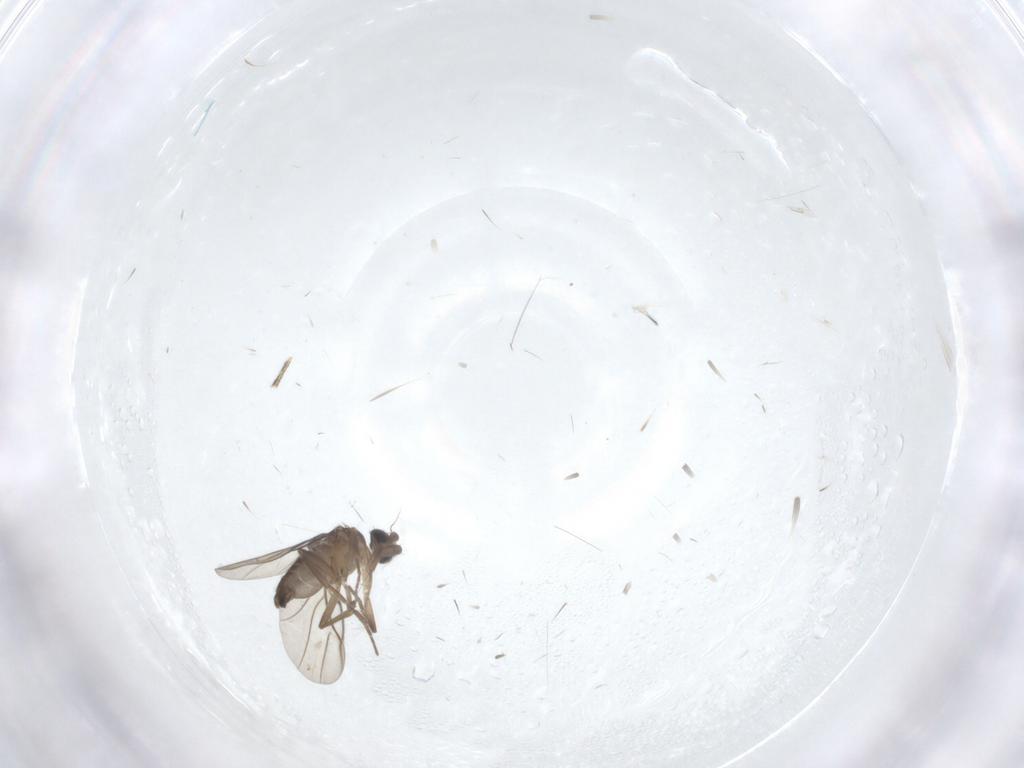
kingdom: Animalia
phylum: Arthropoda
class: Insecta
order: Diptera
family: Phoridae
